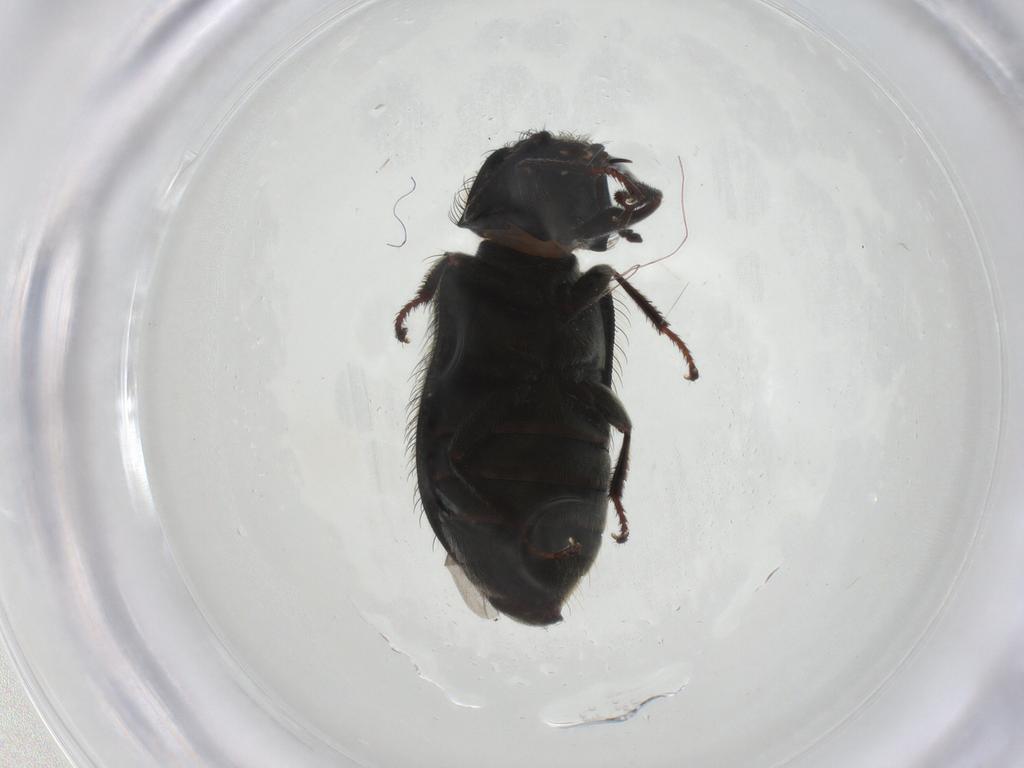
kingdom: Animalia
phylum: Arthropoda
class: Insecta
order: Coleoptera
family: Melyridae
